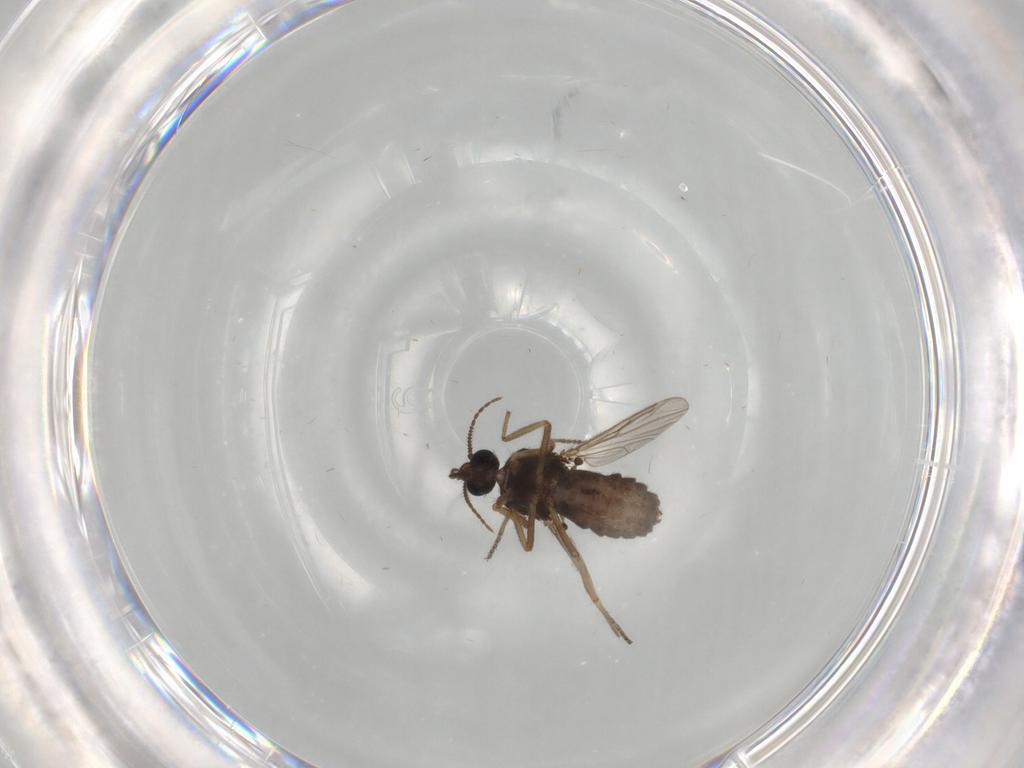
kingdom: Animalia
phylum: Arthropoda
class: Insecta
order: Diptera
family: Ceratopogonidae
